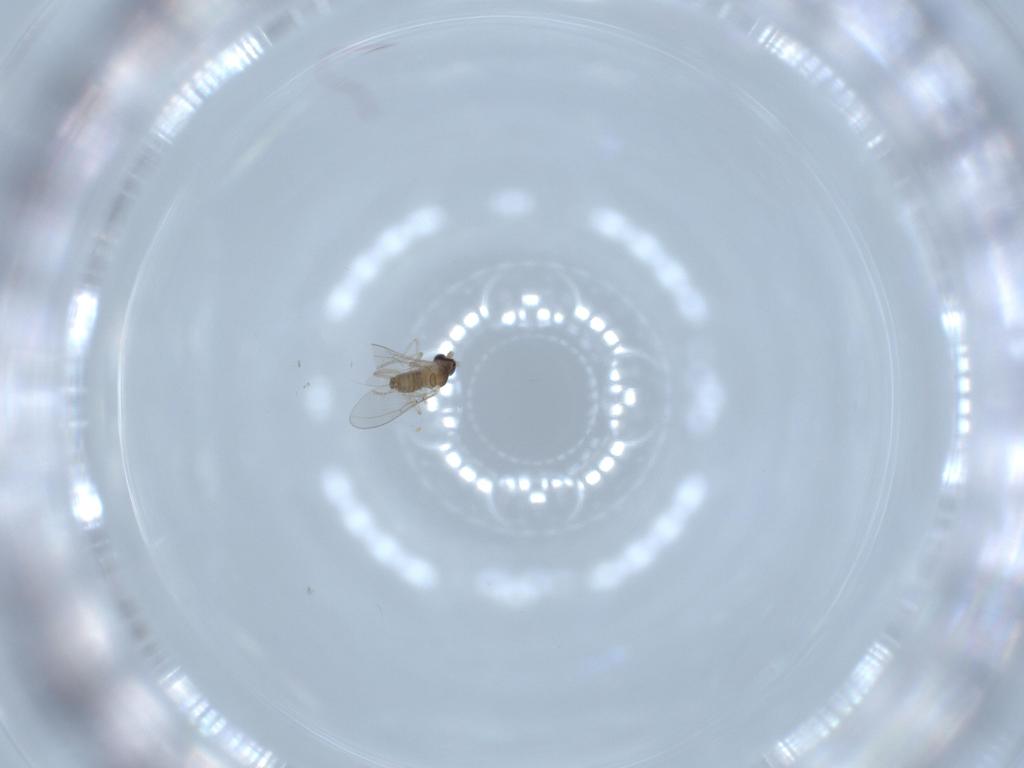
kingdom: Animalia
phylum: Arthropoda
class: Insecta
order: Diptera
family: Cecidomyiidae
